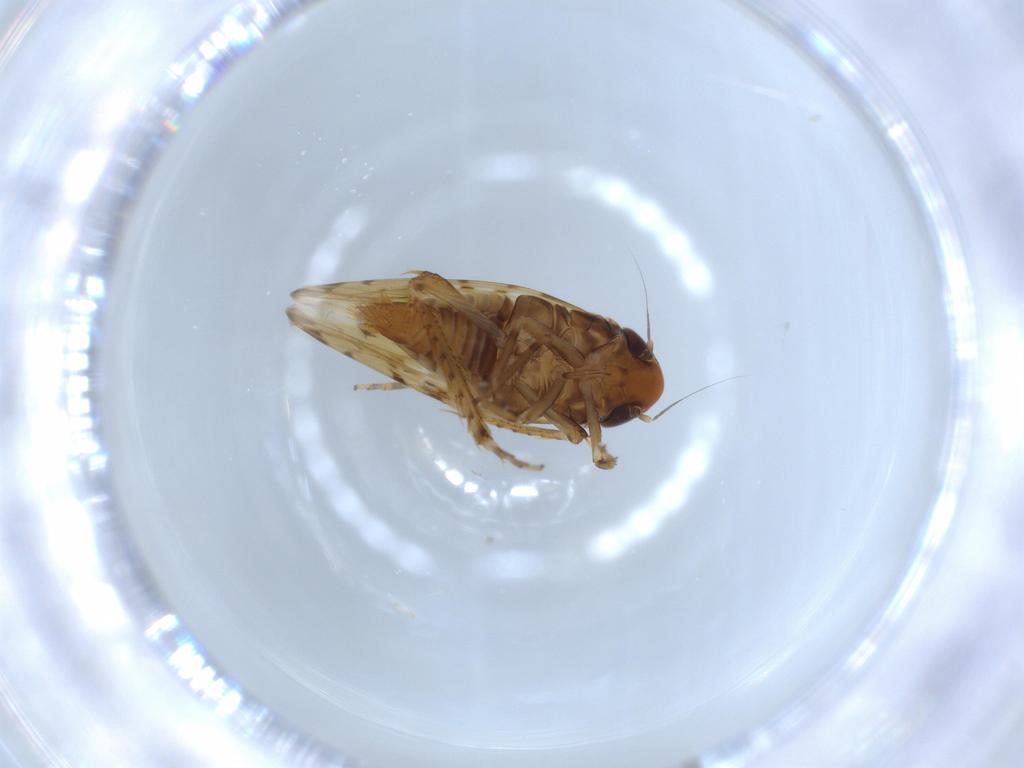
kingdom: Animalia
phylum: Arthropoda
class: Insecta
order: Hemiptera
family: Cicadellidae
